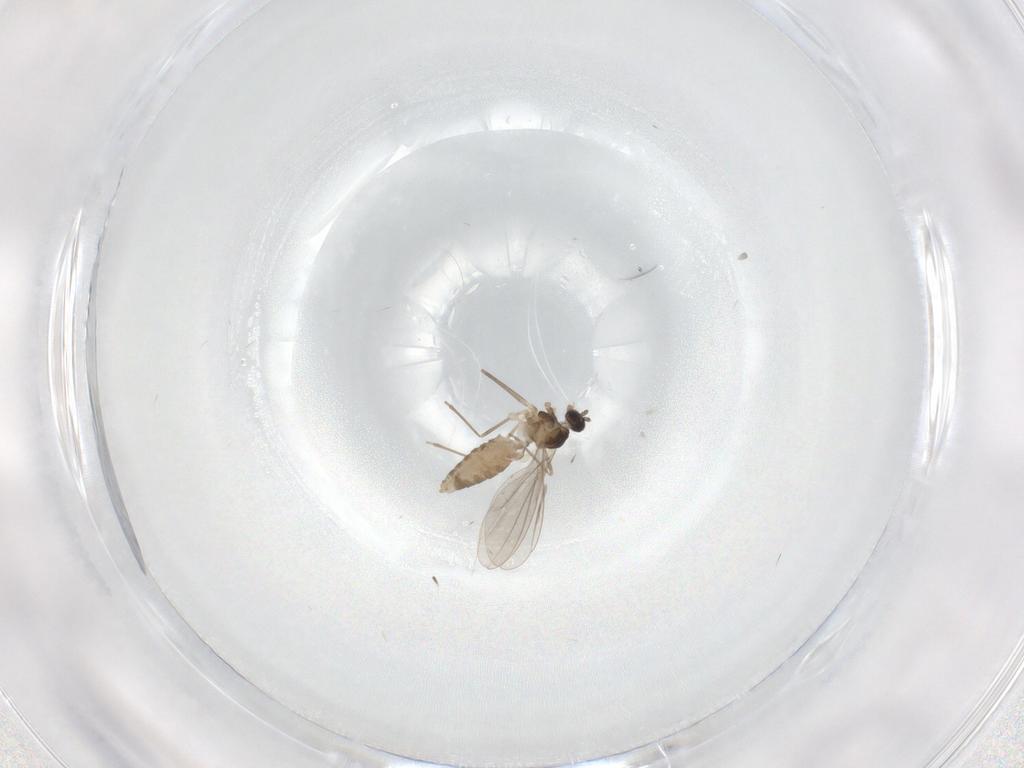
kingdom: Animalia
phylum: Arthropoda
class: Insecta
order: Diptera
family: Cecidomyiidae
